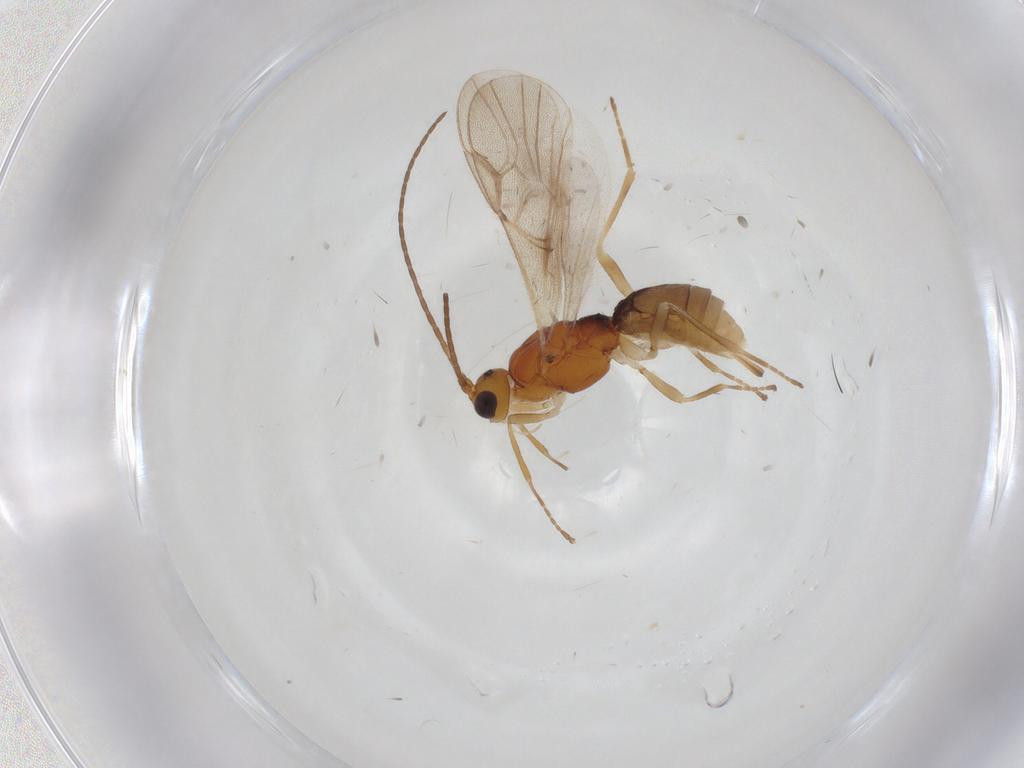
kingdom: Animalia
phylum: Arthropoda
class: Insecta
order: Hymenoptera
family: Braconidae
